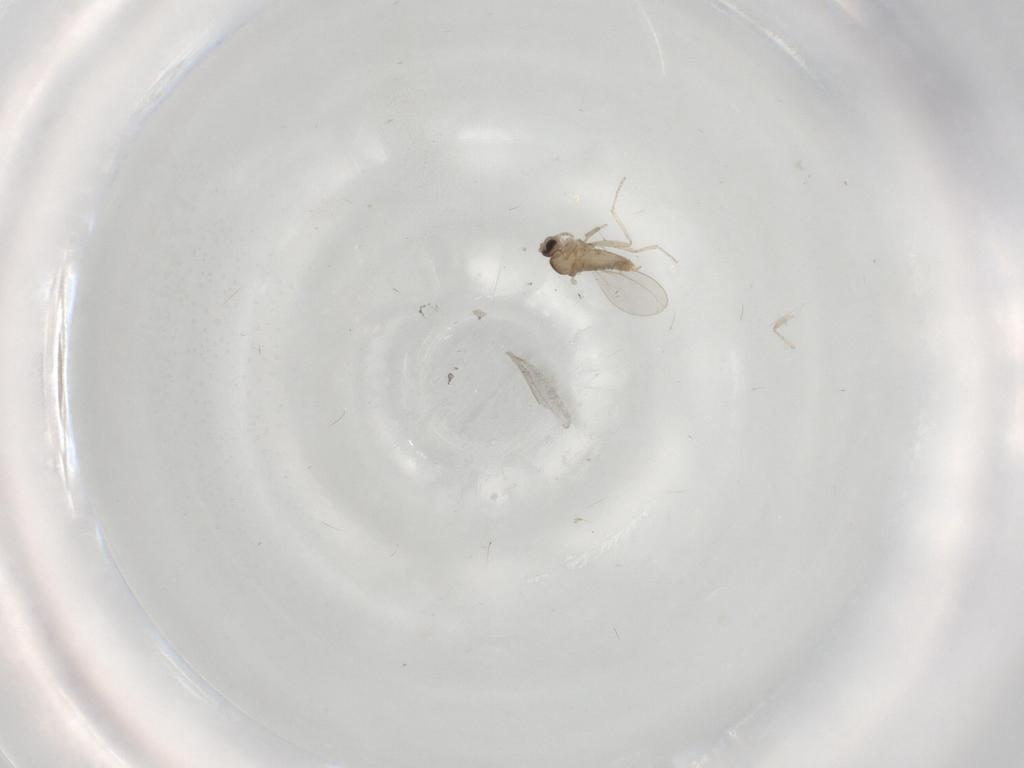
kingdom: Animalia
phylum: Arthropoda
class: Insecta
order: Diptera
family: Cecidomyiidae
